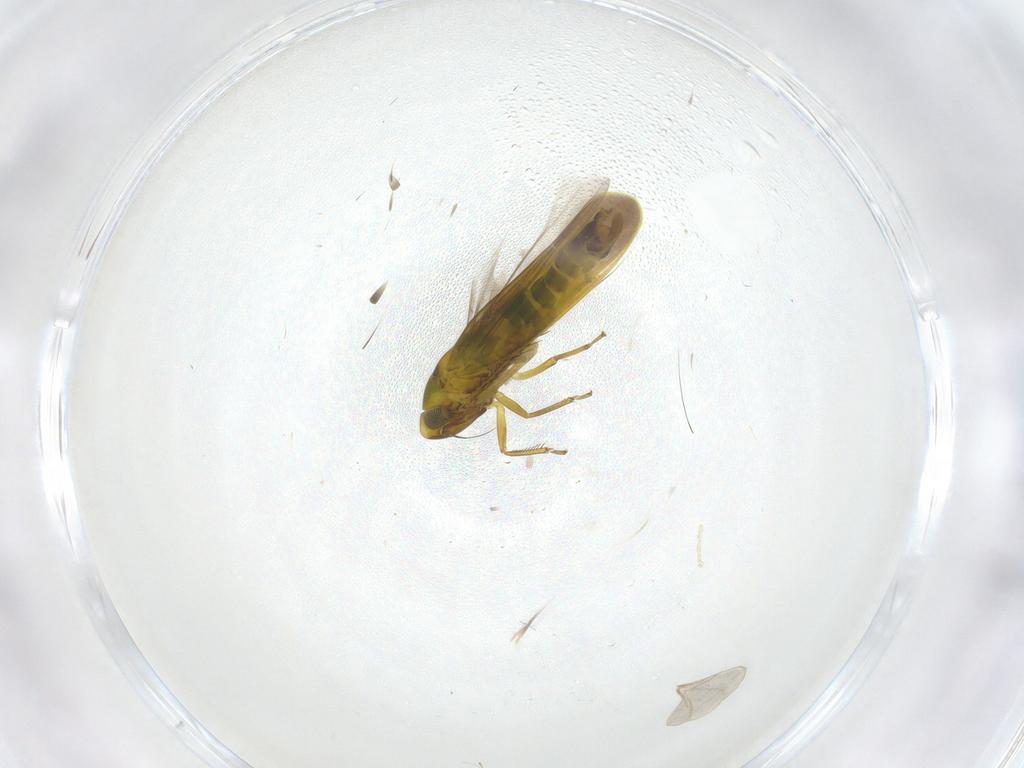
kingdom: Animalia
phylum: Arthropoda
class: Insecta
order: Hemiptera
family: Cicadellidae
